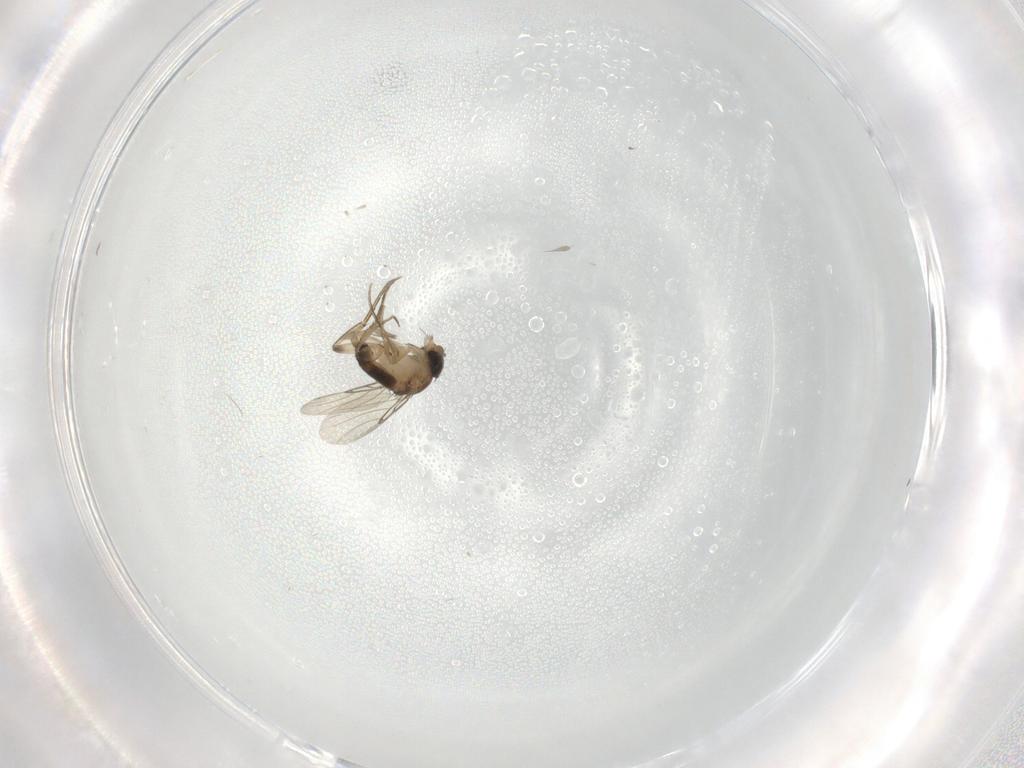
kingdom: Animalia
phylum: Arthropoda
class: Insecta
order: Diptera
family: Phoridae
